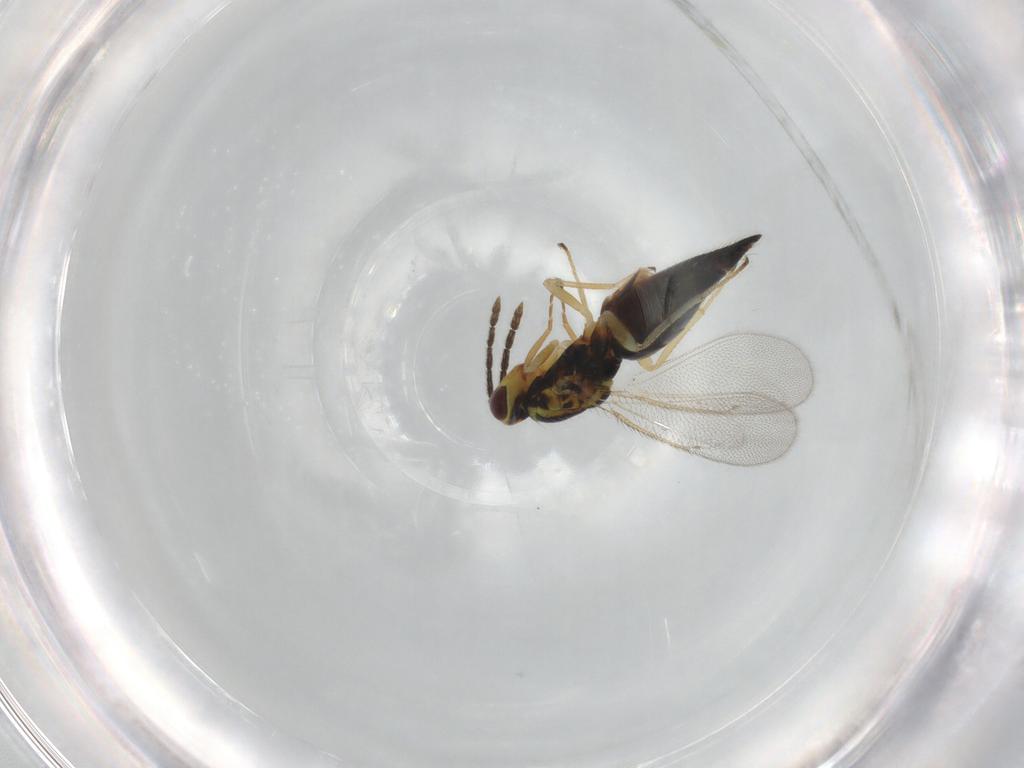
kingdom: Animalia
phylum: Arthropoda
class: Insecta
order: Hymenoptera
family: Eulophidae
